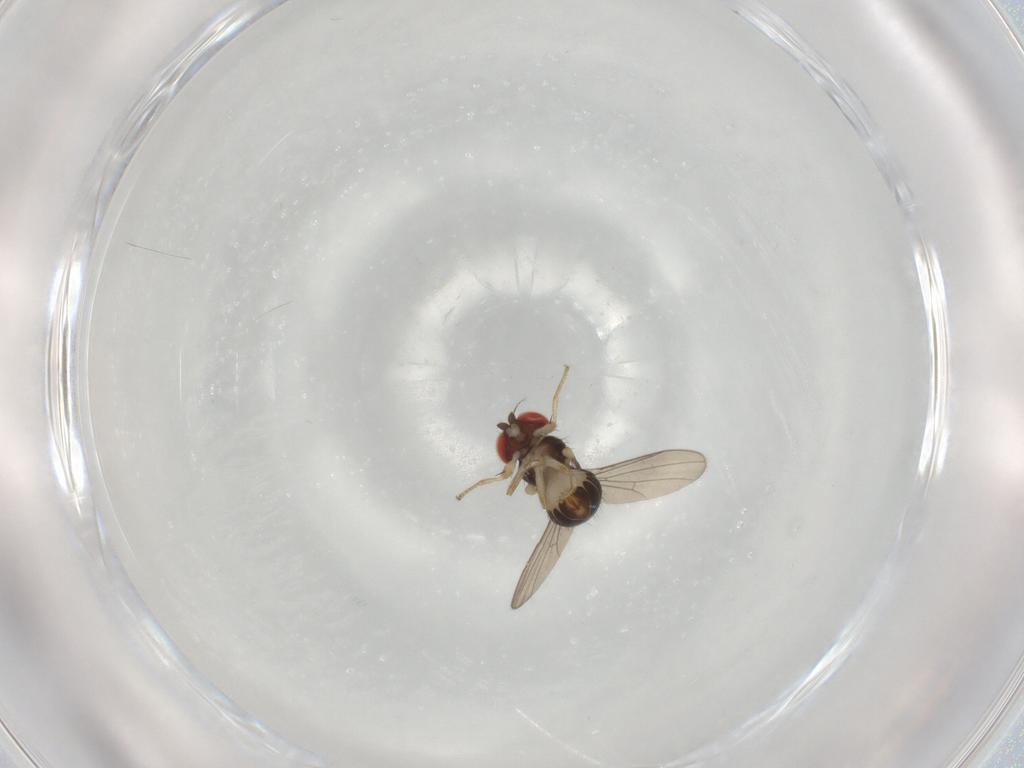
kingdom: Animalia
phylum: Arthropoda
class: Insecta
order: Diptera
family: Drosophilidae
